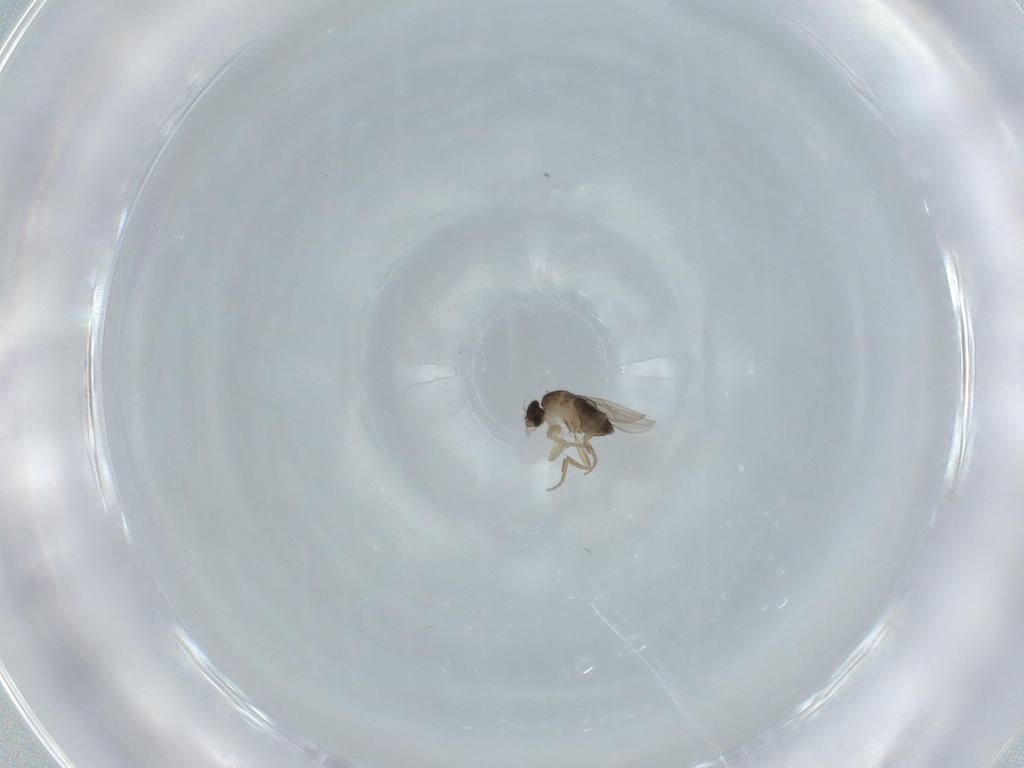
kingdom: Animalia
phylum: Arthropoda
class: Insecta
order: Diptera
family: Phoridae
